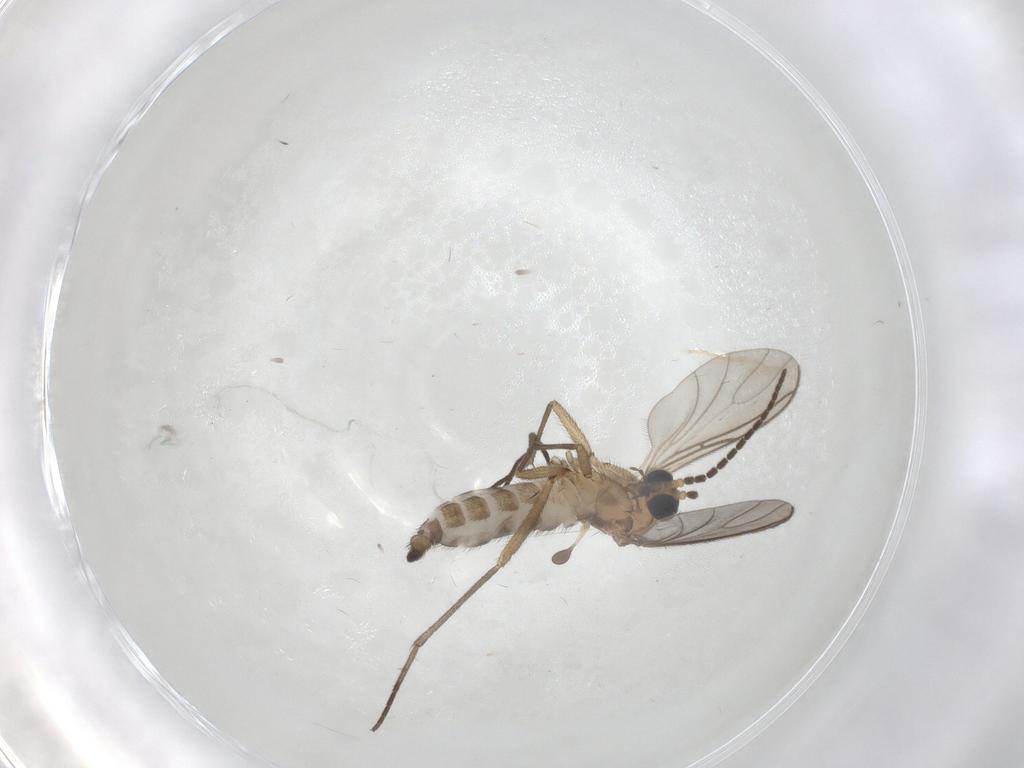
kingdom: Animalia
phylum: Arthropoda
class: Insecta
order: Diptera
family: Sciaridae
